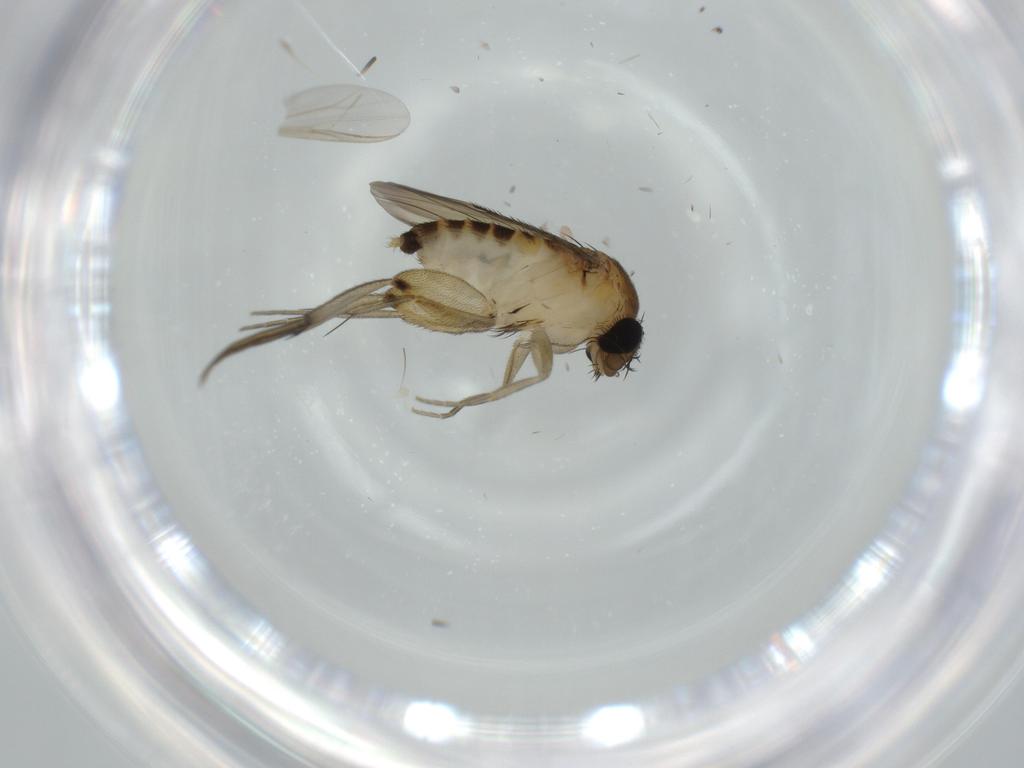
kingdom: Animalia
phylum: Arthropoda
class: Insecta
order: Diptera
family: Phoridae
